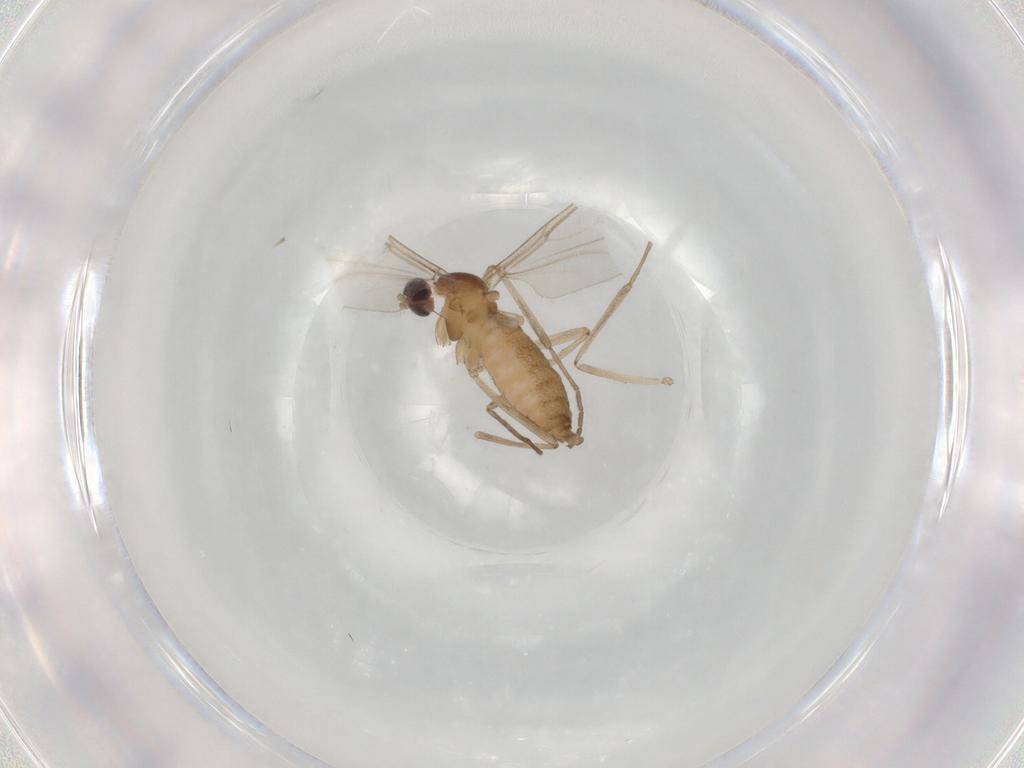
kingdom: Animalia
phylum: Arthropoda
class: Insecta
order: Diptera
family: Cecidomyiidae
